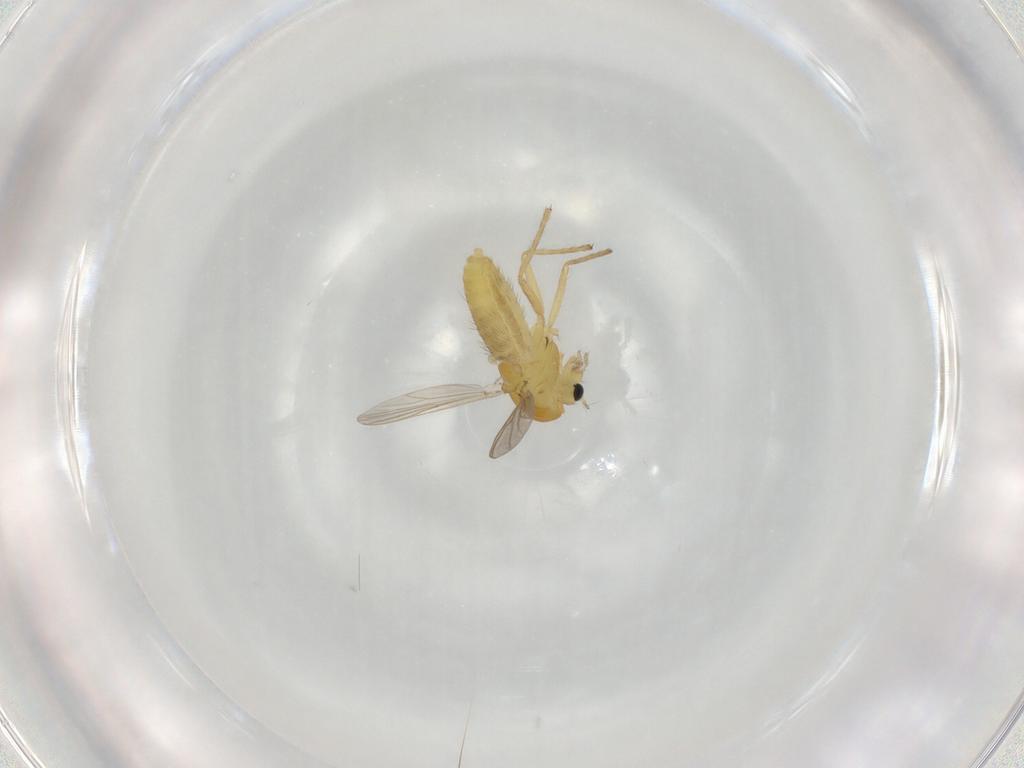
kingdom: Animalia
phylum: Arthropoda
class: Insecta
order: Diptera
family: Chironomidae
